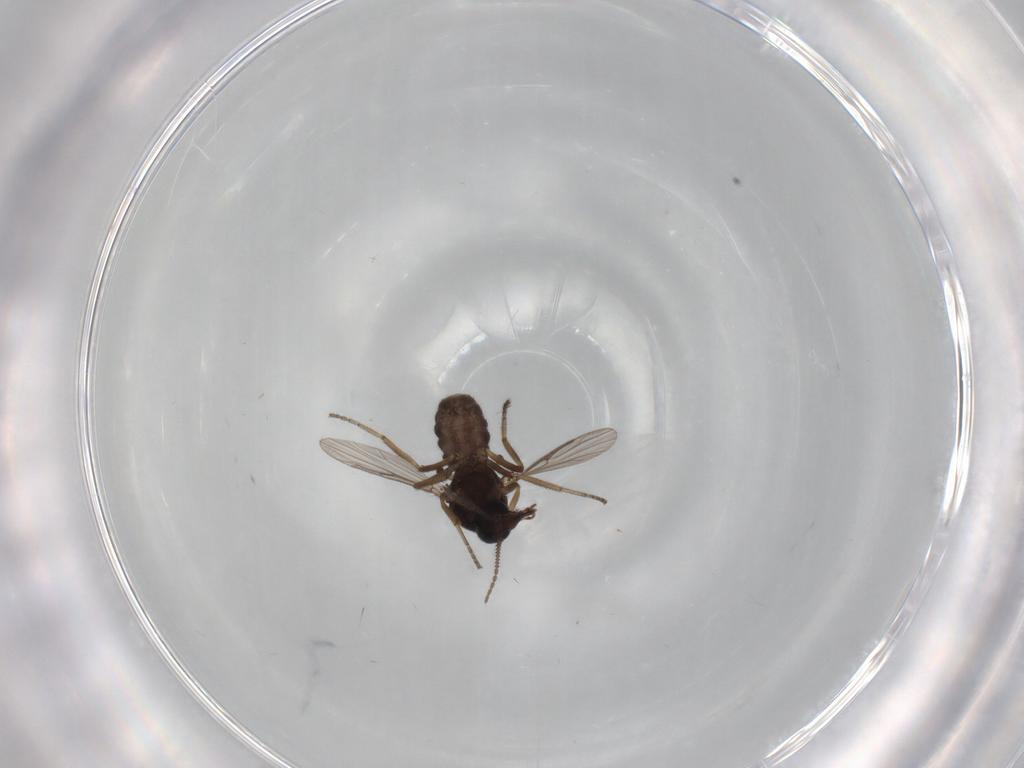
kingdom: Animalia
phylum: Arthropoda
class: Insecta
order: Diptera
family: Ceratopogonidae
